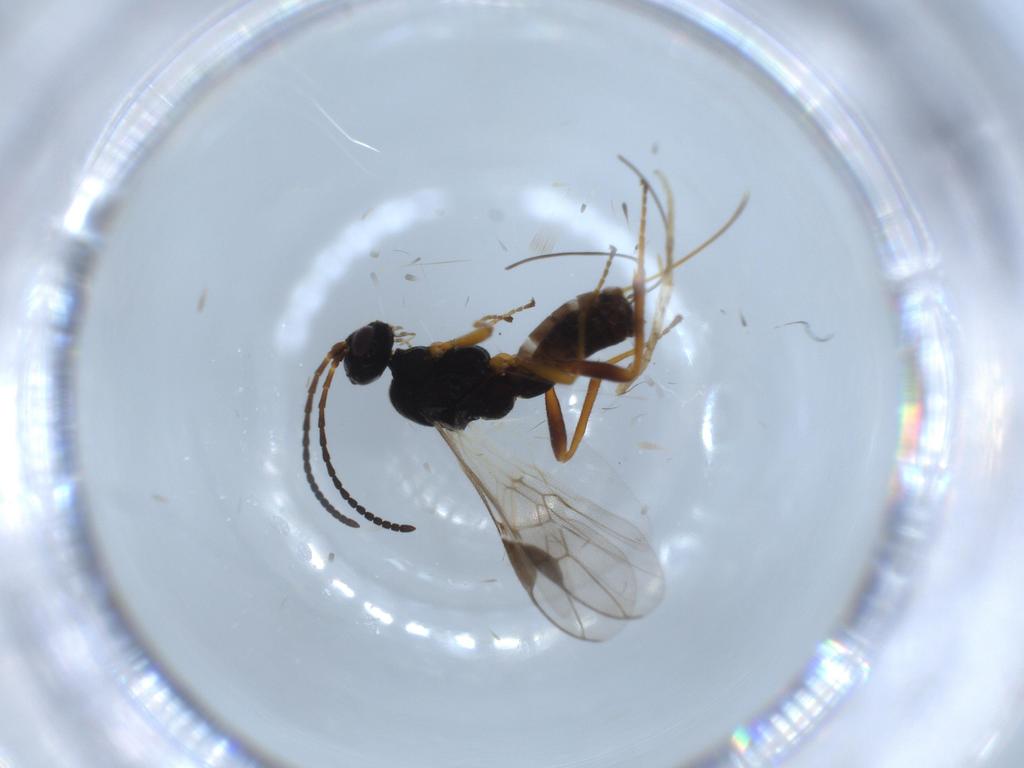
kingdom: Animalia
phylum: Arthropoda
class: Insecta
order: Hymenoptera
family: Braconidae
